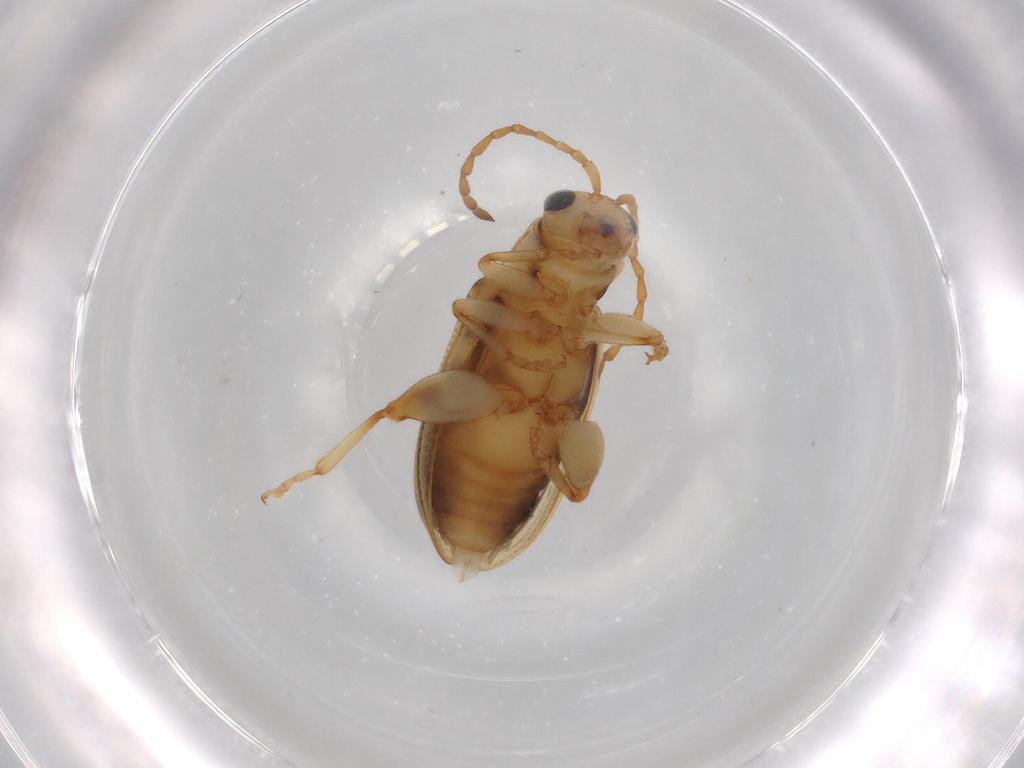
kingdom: Animalia
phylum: Arthropoda
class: Insecta
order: Coleoptera
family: Chrysomelidae
